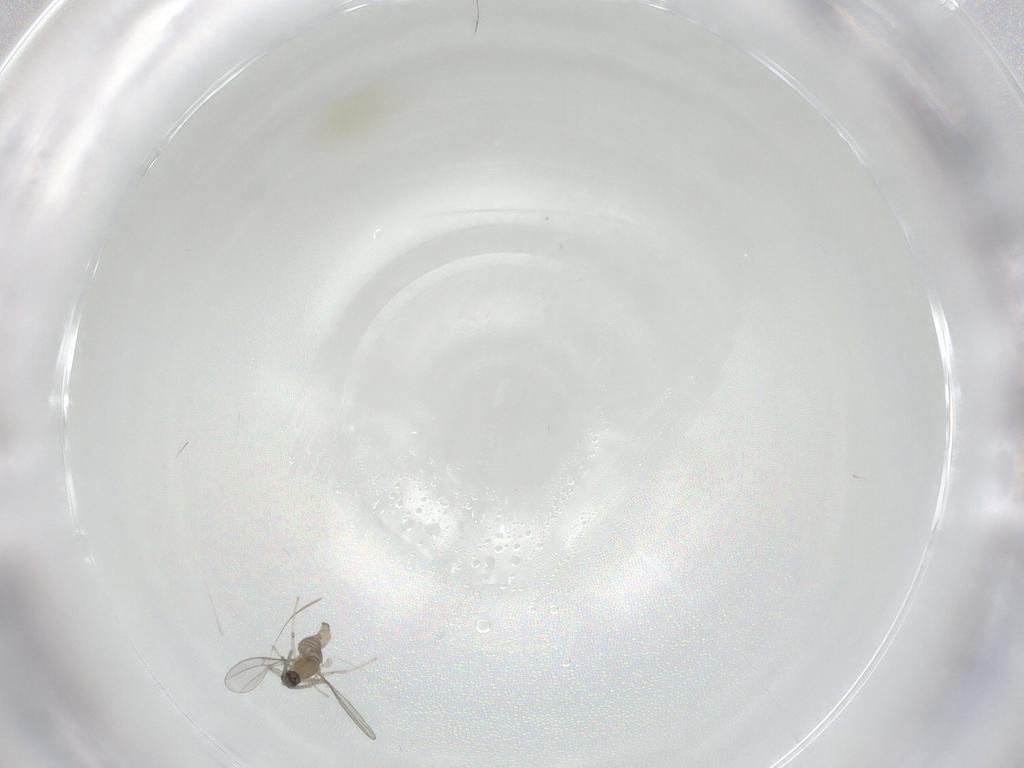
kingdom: Animalia
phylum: Arthropoda
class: Insecta
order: Diptera
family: Cecidomyiidae
